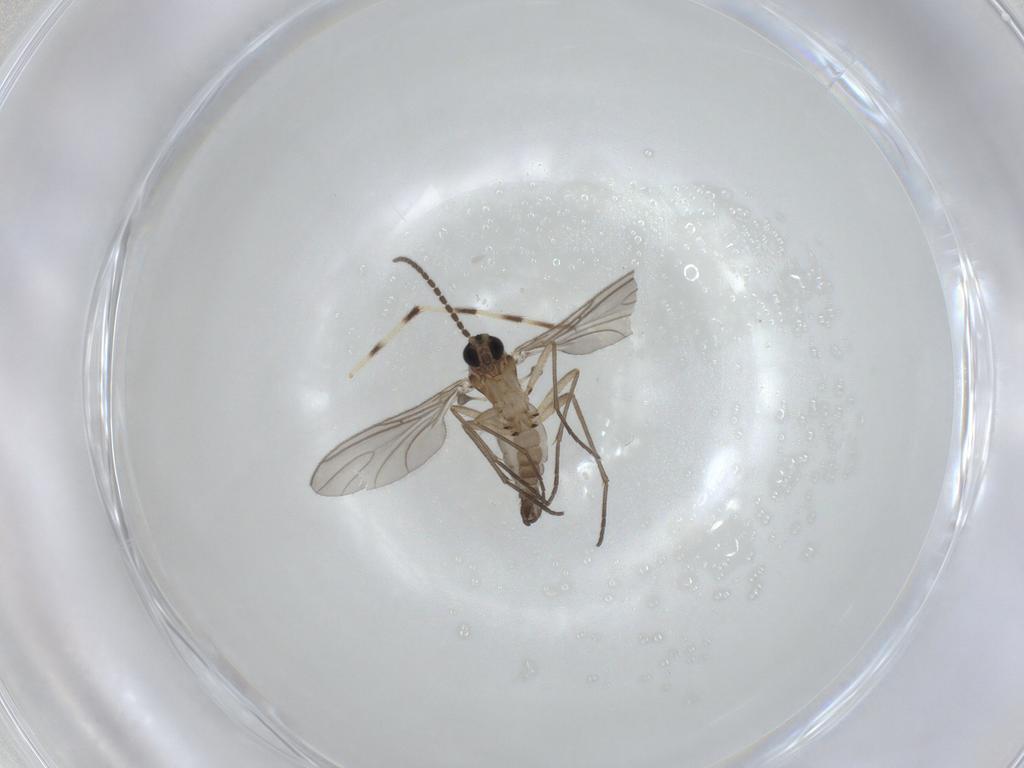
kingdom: Animalia
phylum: Arthropoda
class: Insecta
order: Diptera
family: Sciaridae
